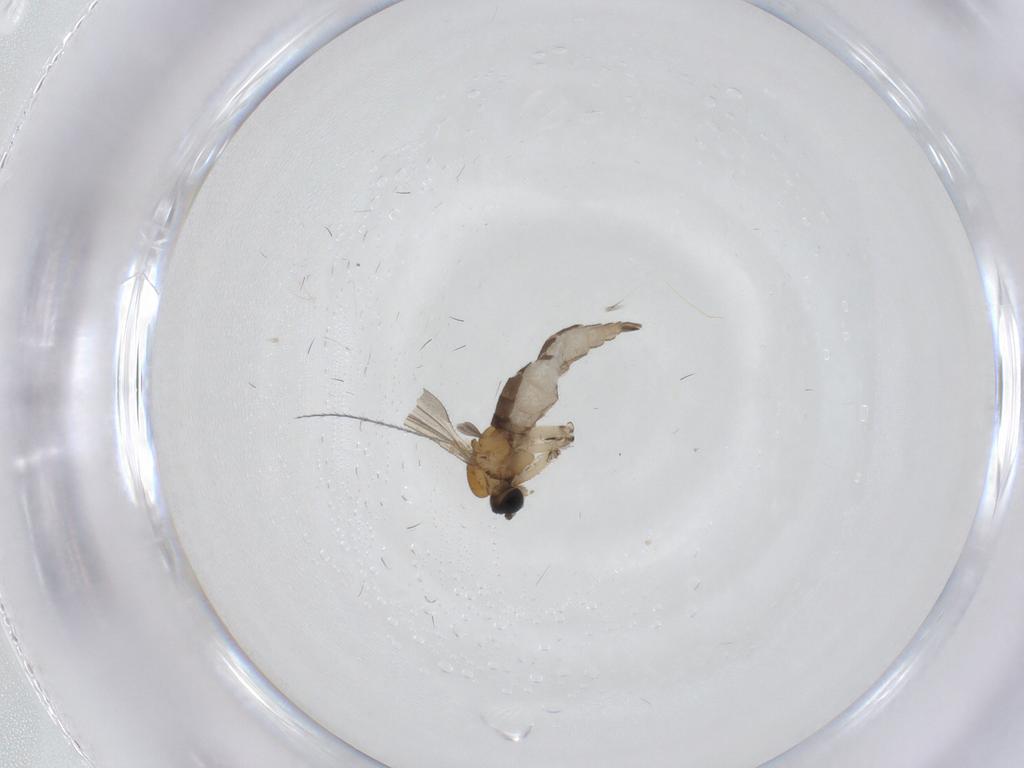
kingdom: Animalia
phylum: Arthropoda
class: Insecta
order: Diptera
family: Sciaridae
